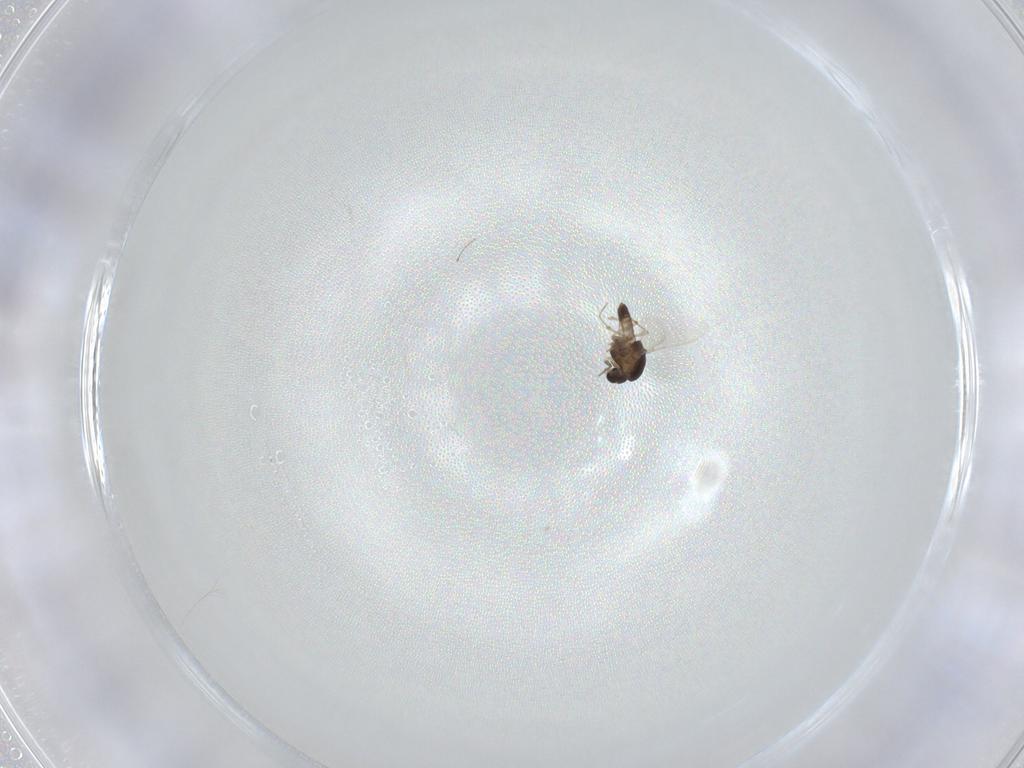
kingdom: Animalia
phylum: Arthropoda
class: Insecta
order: Diptera
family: Chironomidae
